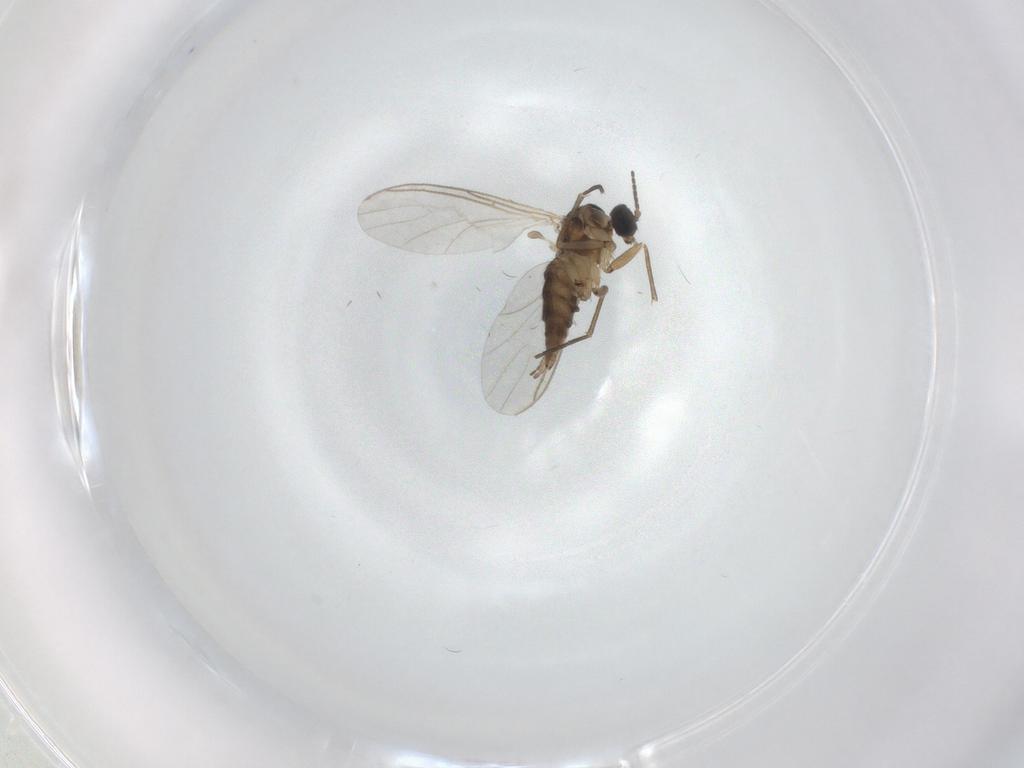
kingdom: Animalia
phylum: Arthropoda
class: Insecta
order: Diptera
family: Sciaridae
